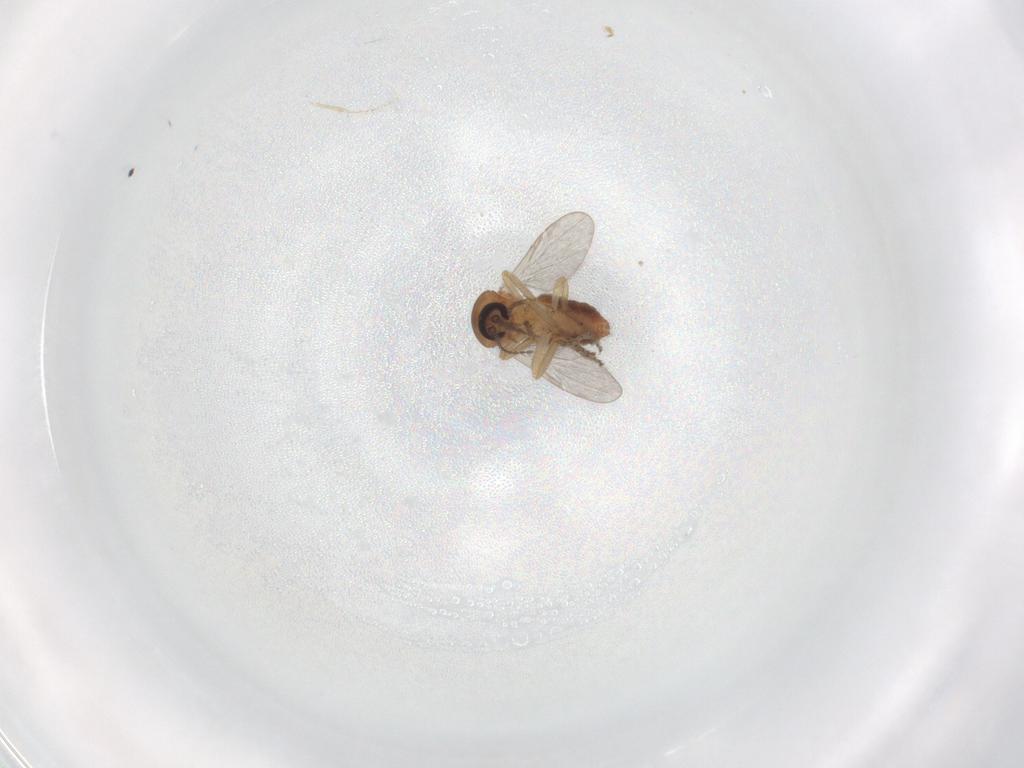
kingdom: Animalia
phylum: Arthropoda
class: Insecta
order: Diptera
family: Ceratopogonidae
